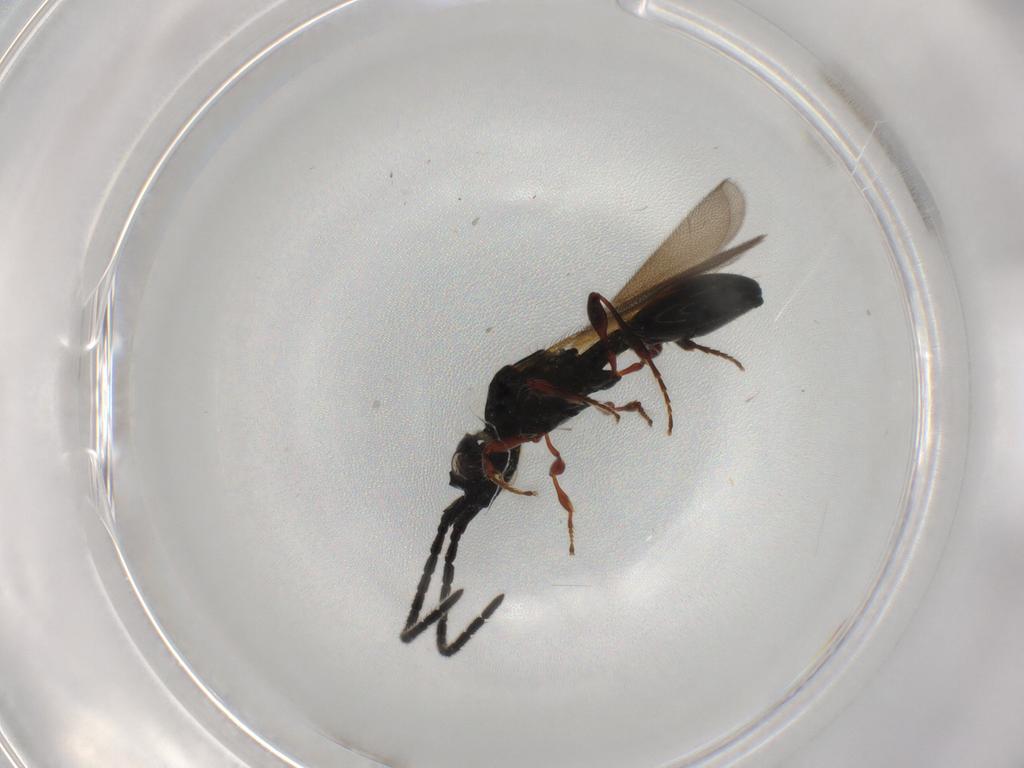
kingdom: Animalia
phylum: Arthropoda
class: Insecta
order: Hymenoptera
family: Diapriidae
